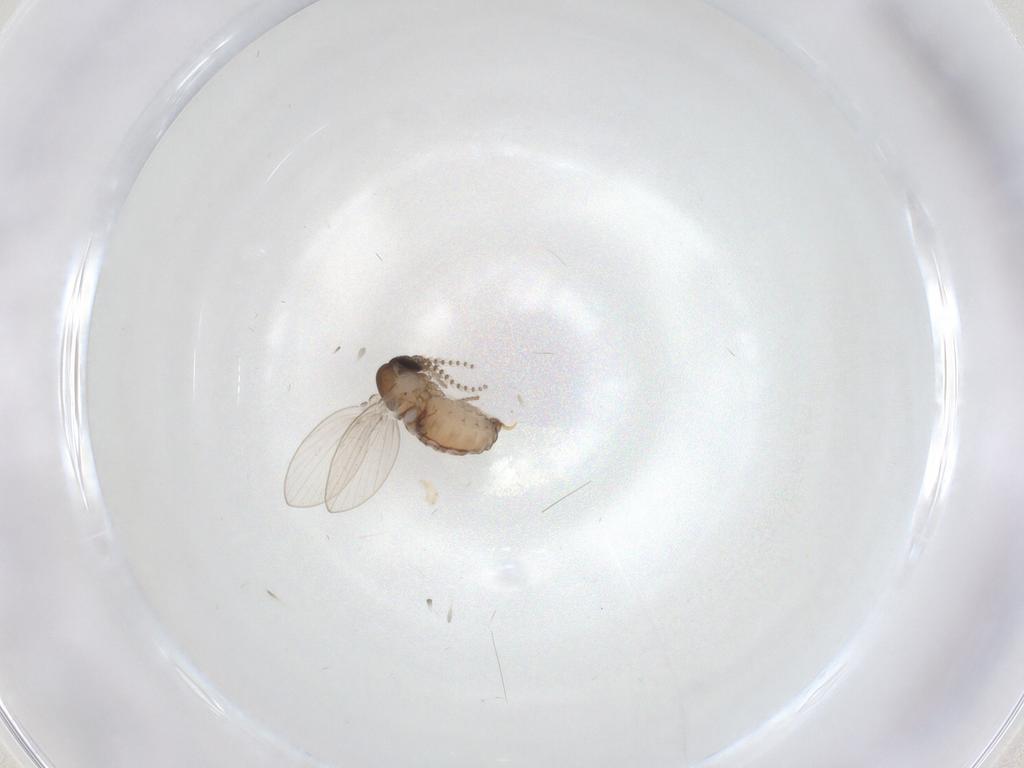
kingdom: Animalia
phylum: Arthropoda
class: Insecta
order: Diptera
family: Psychodidae
